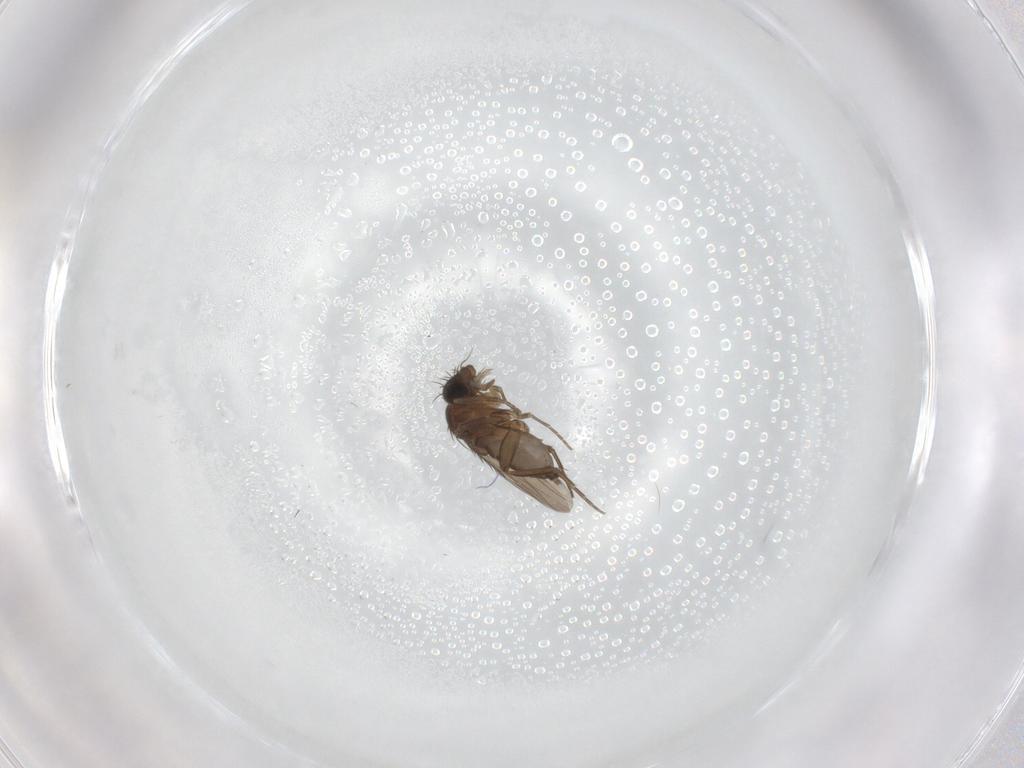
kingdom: Animalia
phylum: Arthropoda
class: Insecta
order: Diptera
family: Phoridae
